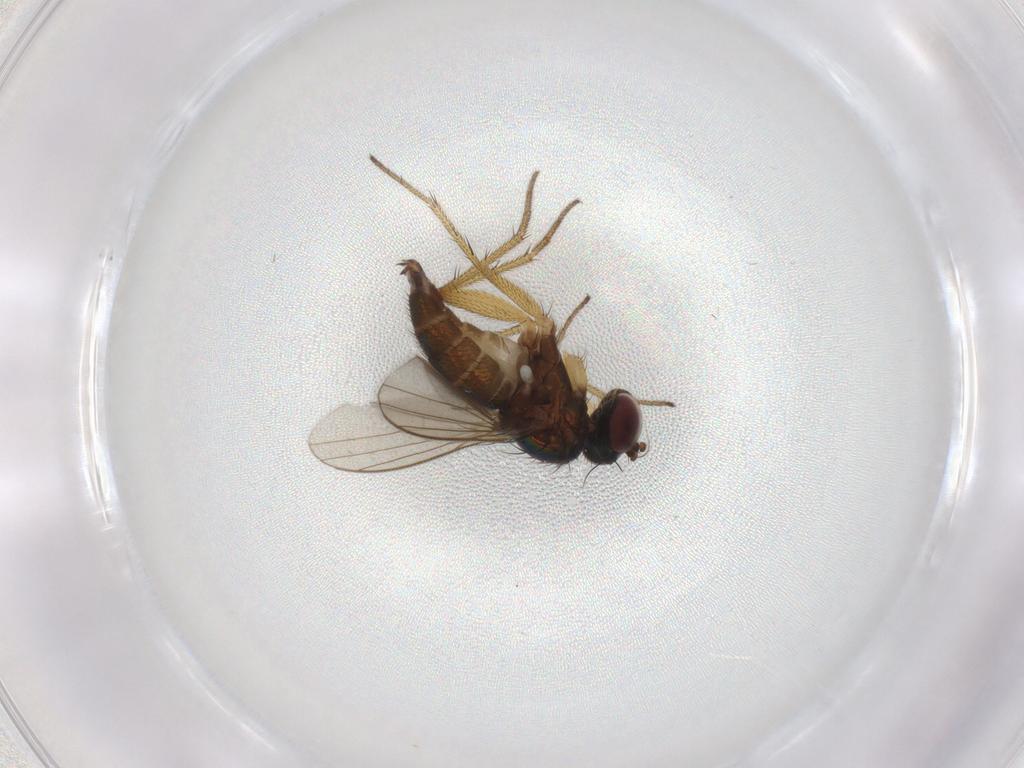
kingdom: Animalia
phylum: Arthropoda
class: Insecta
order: Diptera
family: Dolichopodidae
